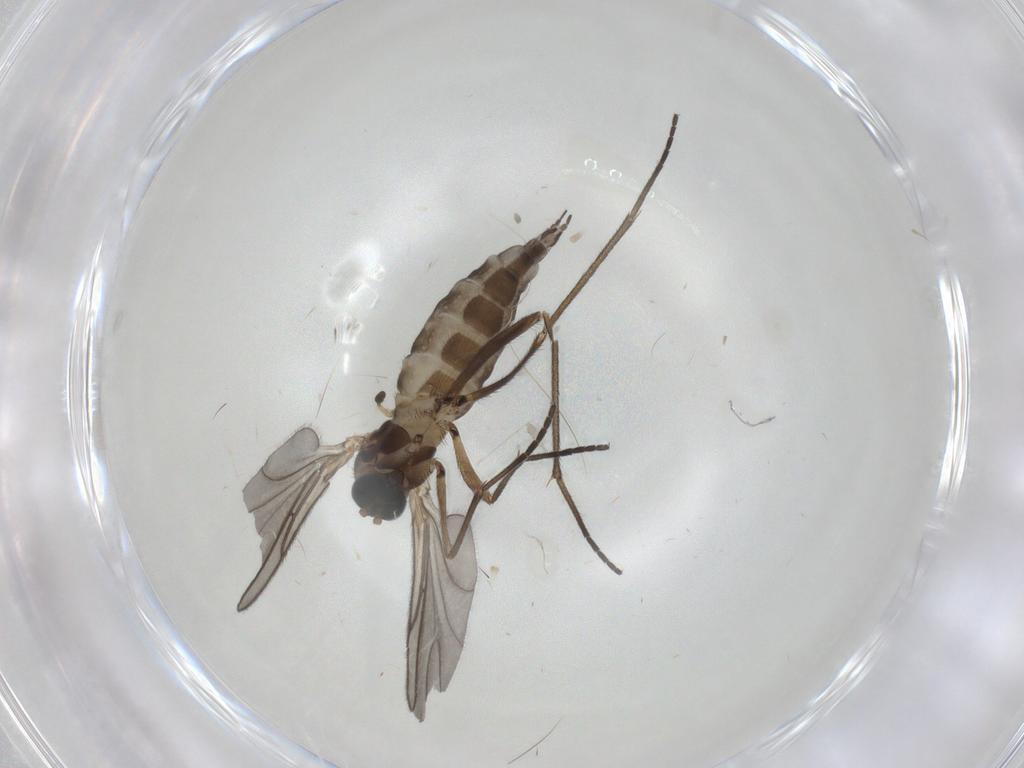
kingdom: Animalia
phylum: Arthropoda
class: Insecta
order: Diptera
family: Sciaridae
